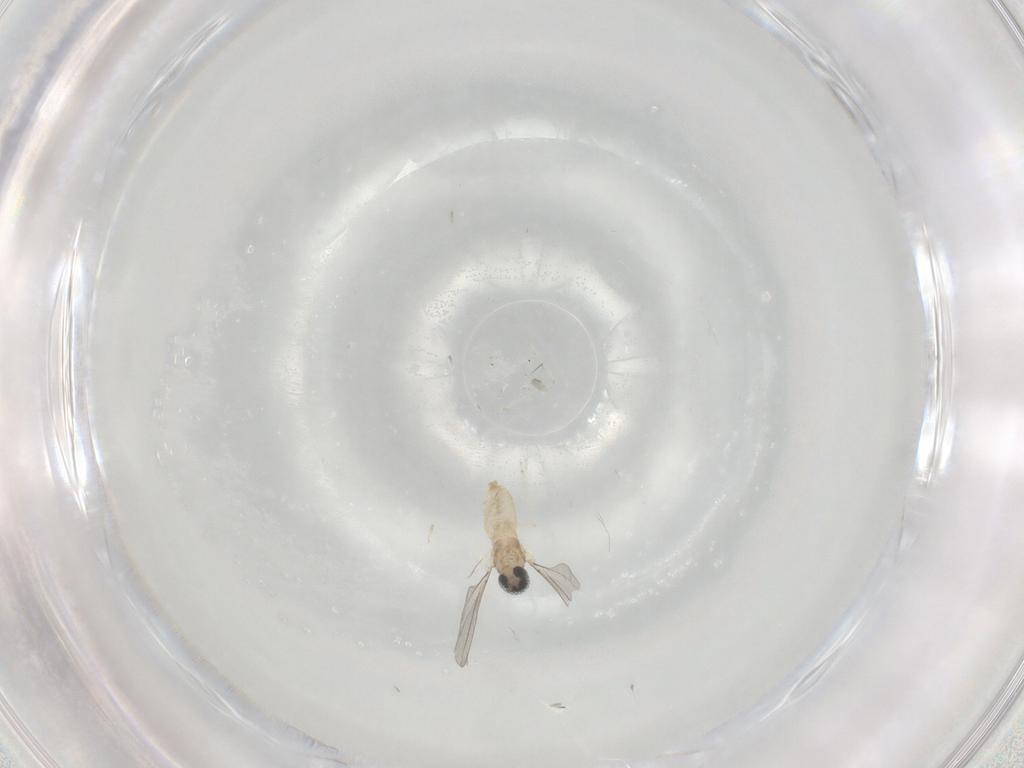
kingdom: Animalia
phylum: Arthropoda
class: Insecta
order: Diptera
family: Cecidomyiidae
